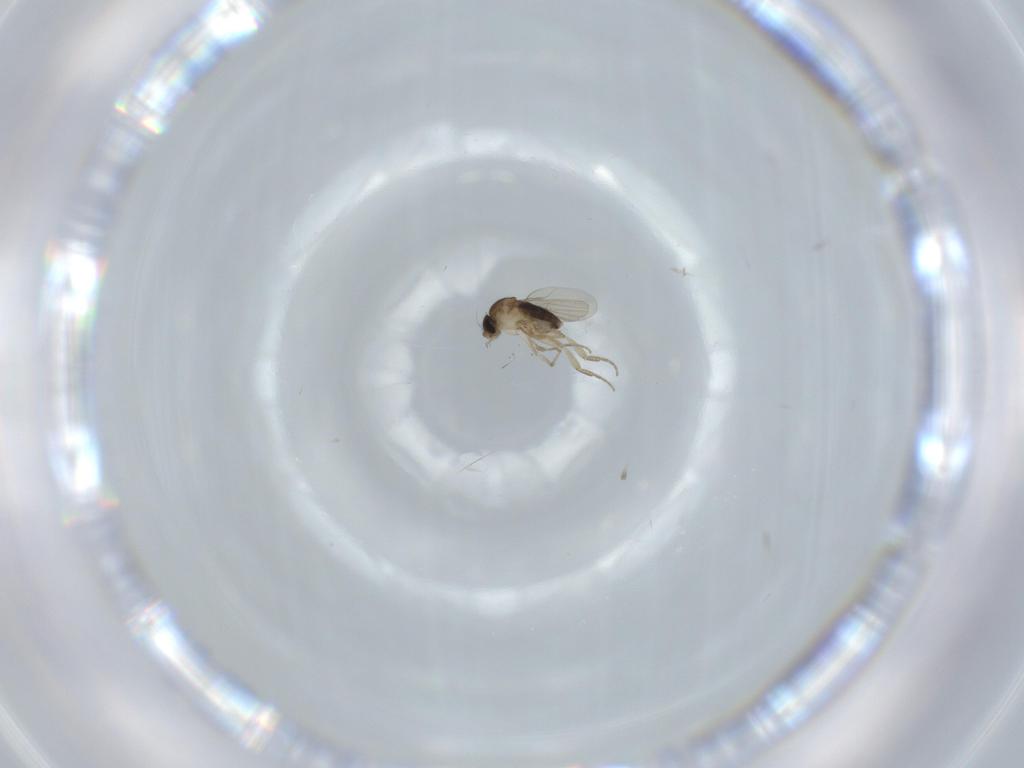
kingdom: Animalia
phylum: Arthropoda
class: Insecta
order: Diptera
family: Phoridae
